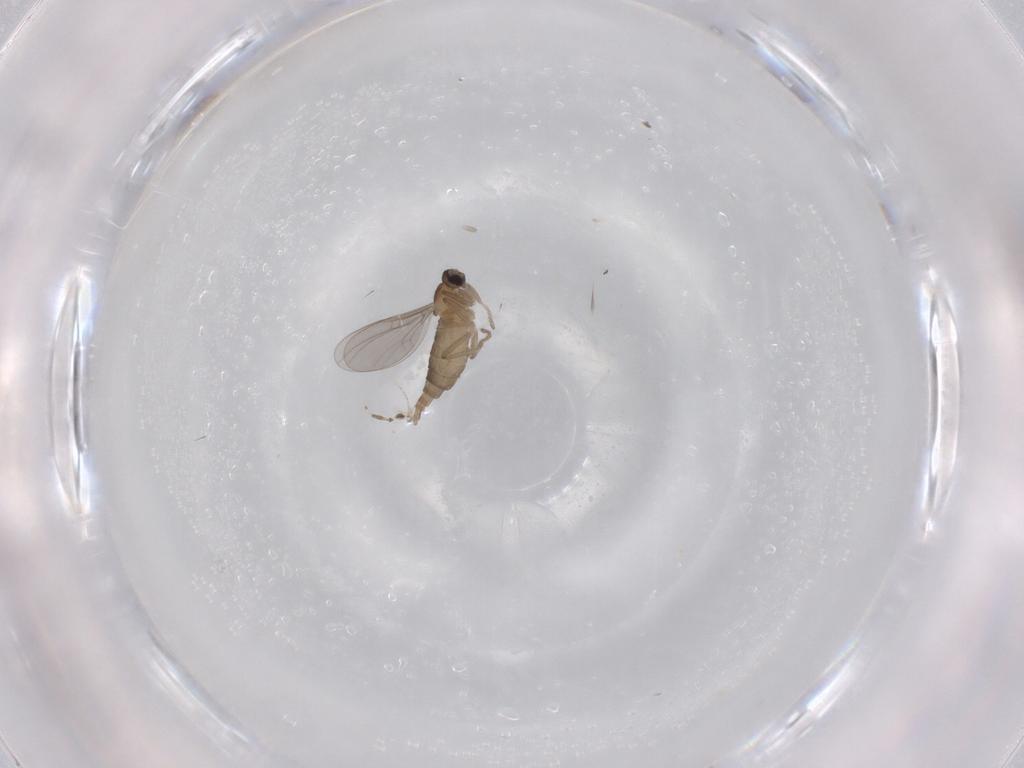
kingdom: Animalia
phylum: Arthropoda
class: Insecta
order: Diptera
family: Cecidomyiidae
